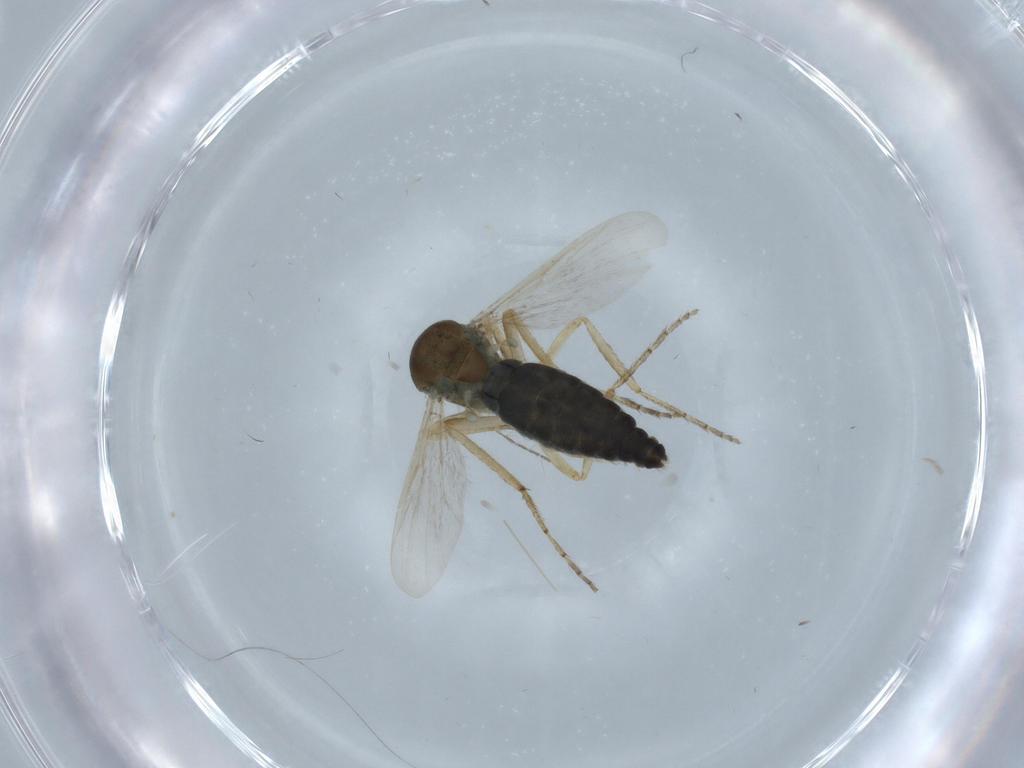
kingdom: Animalia
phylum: Arthropoda
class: Insecta
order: Diptera
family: Ceratopogonidae
